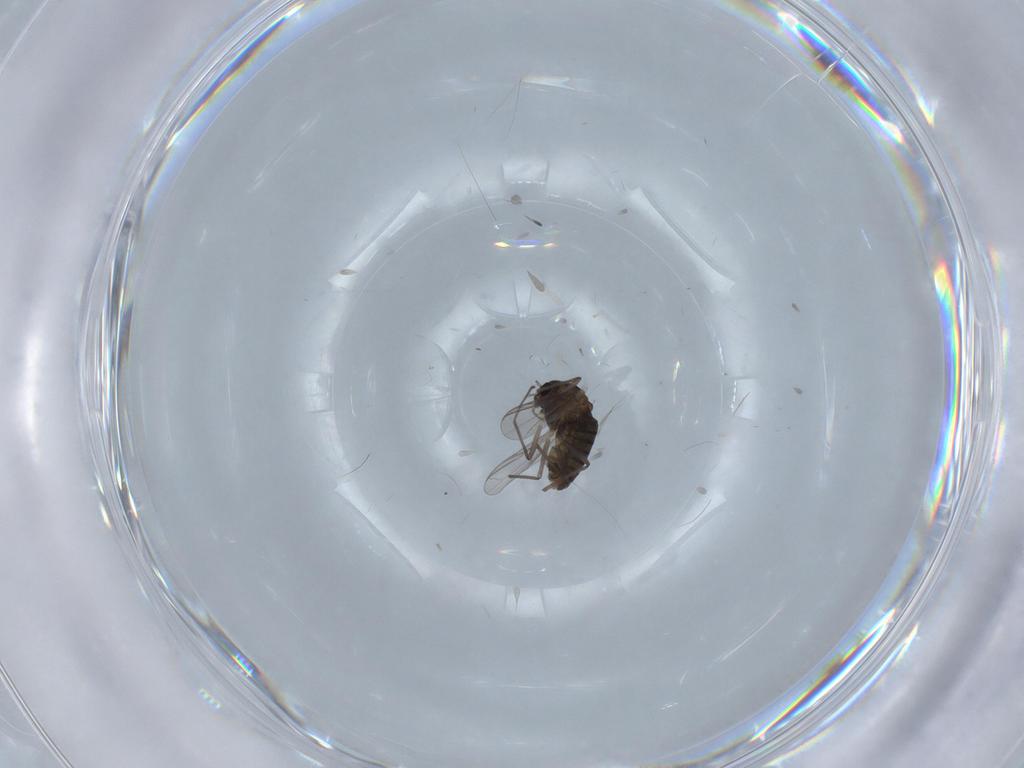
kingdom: Animalia
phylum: Arthropoda
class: Insecta
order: Diptera
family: Chironomidae
